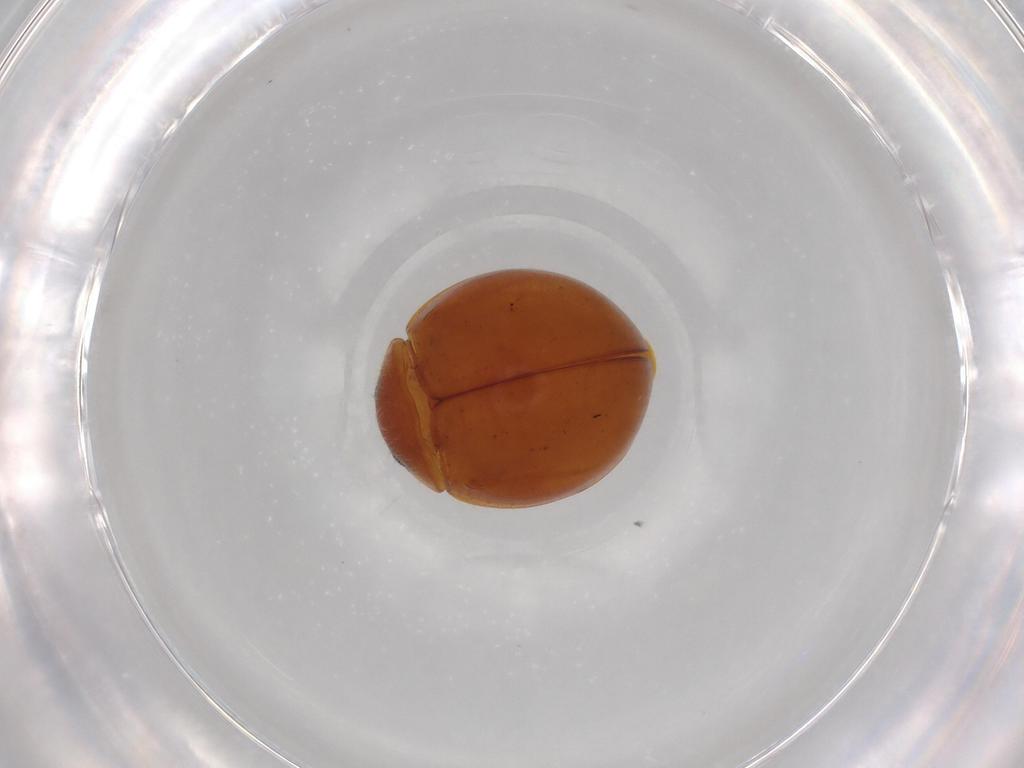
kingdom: Animalia
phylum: Arthropoda
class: Insecta
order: Coleoptera
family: Coccinellidae
